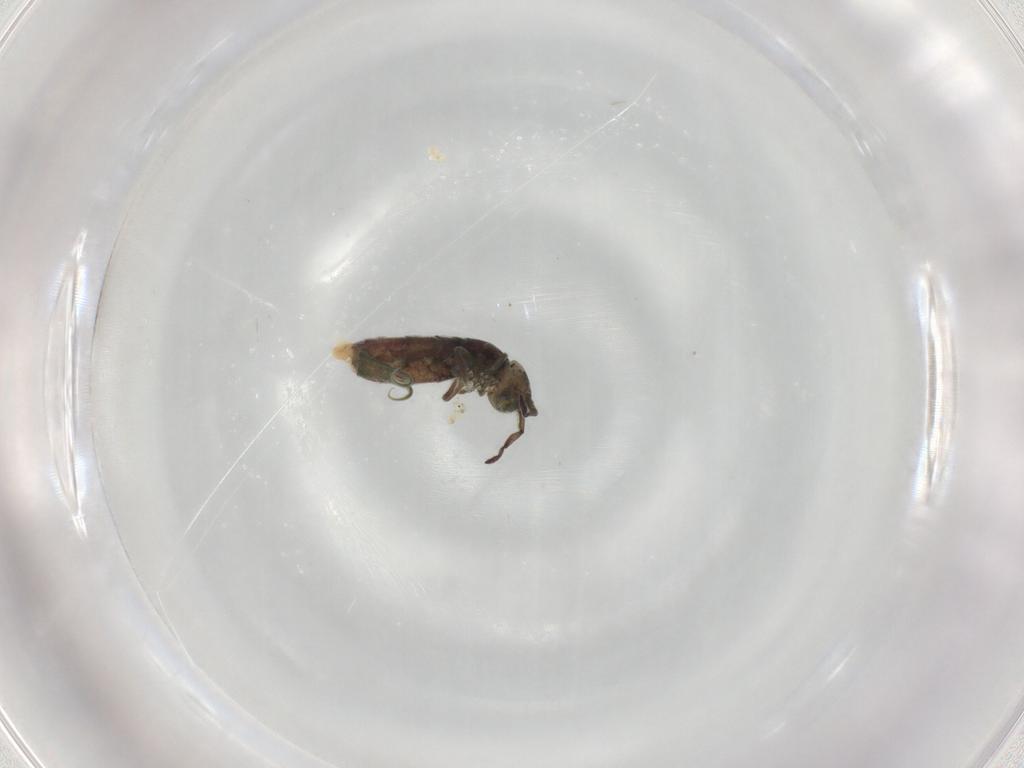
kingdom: Animalia
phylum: Arthropoda
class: Collembola
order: Entomobryomorpha
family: Isotomidae
